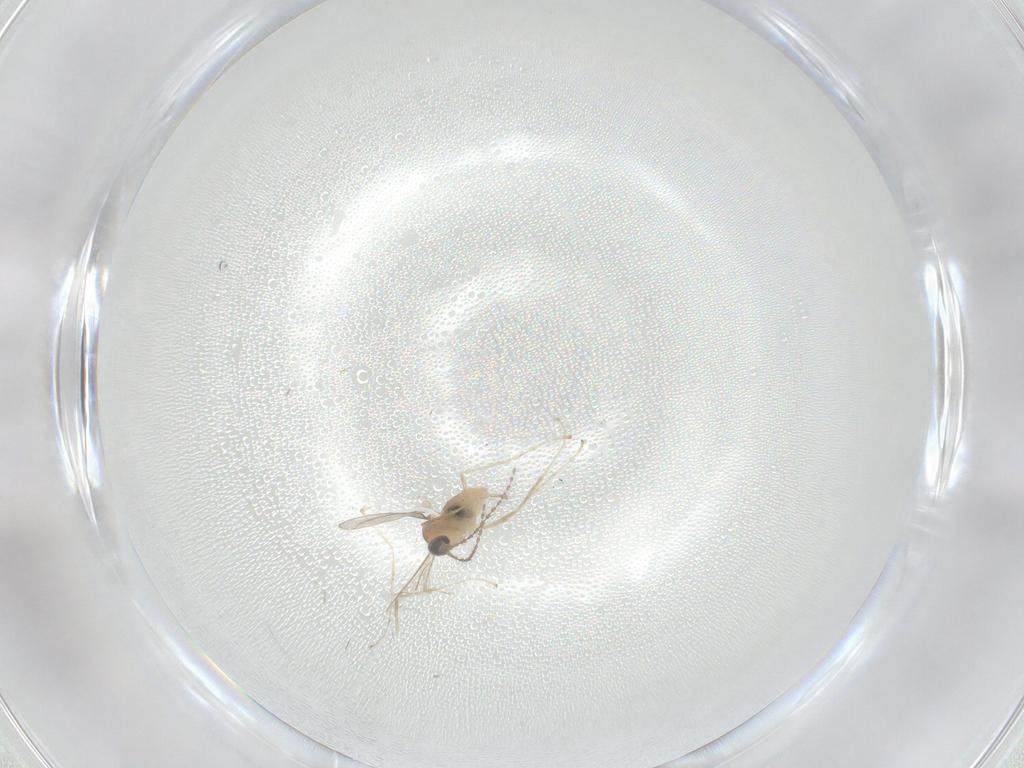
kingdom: Animalia
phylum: Arthropoda
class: Insecta
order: Diptera
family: Cecidomyiidae
